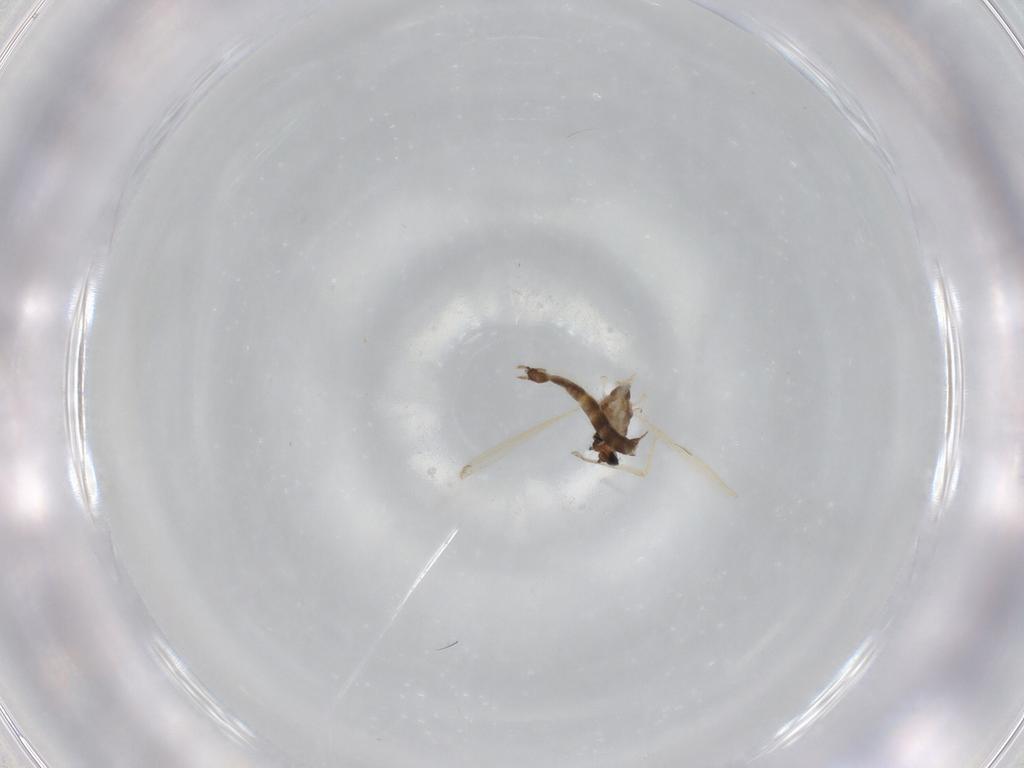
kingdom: Animalia
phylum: Arthropoda
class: Insecta
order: Diptera
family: Chironomidae
